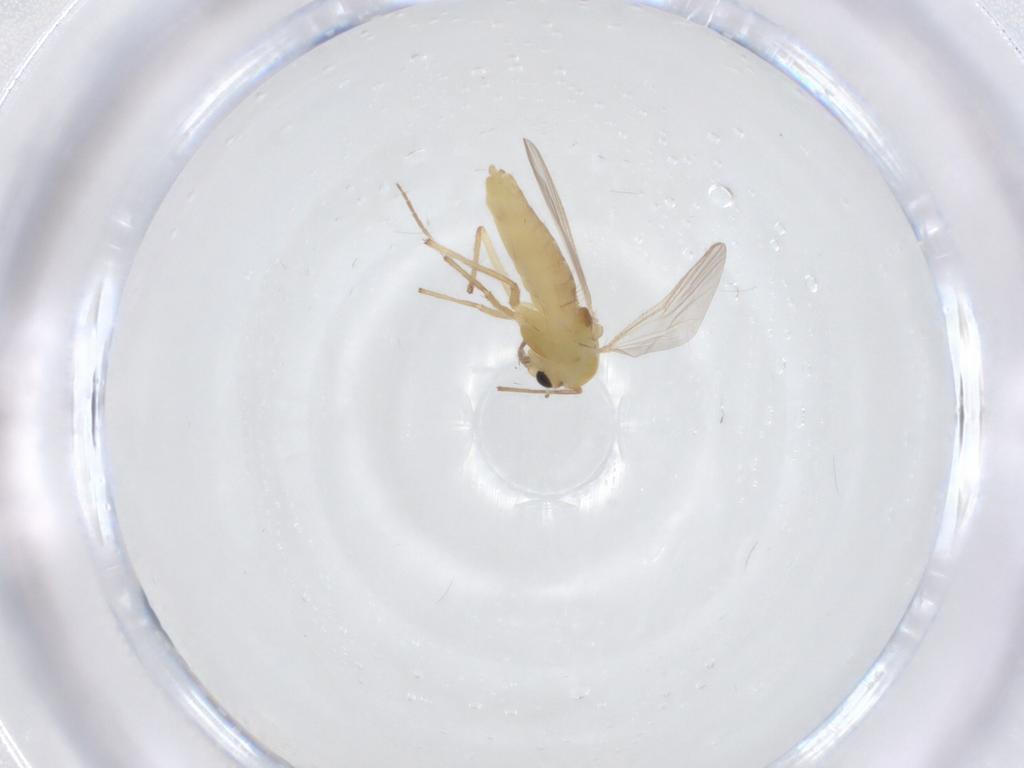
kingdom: Animalia
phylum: Arthropoda
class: Insecta
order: Diptera
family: Chironomidae
